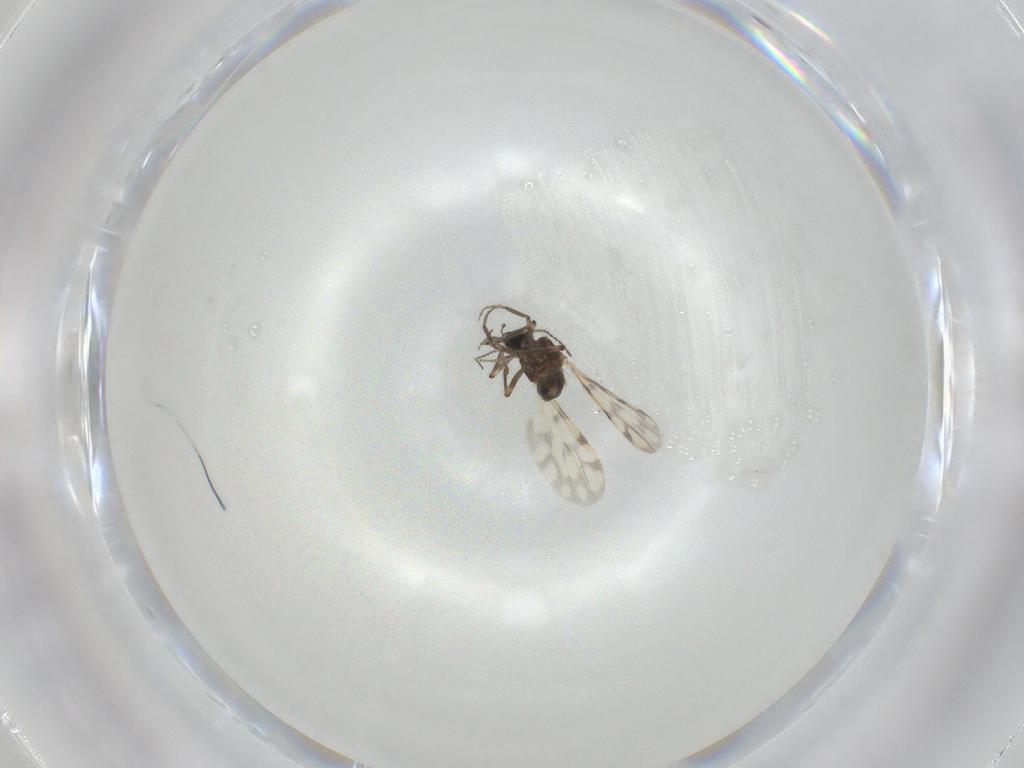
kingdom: Animalia
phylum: Arthropoda
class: Insecta
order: Diptera
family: Ceratopogonidae
